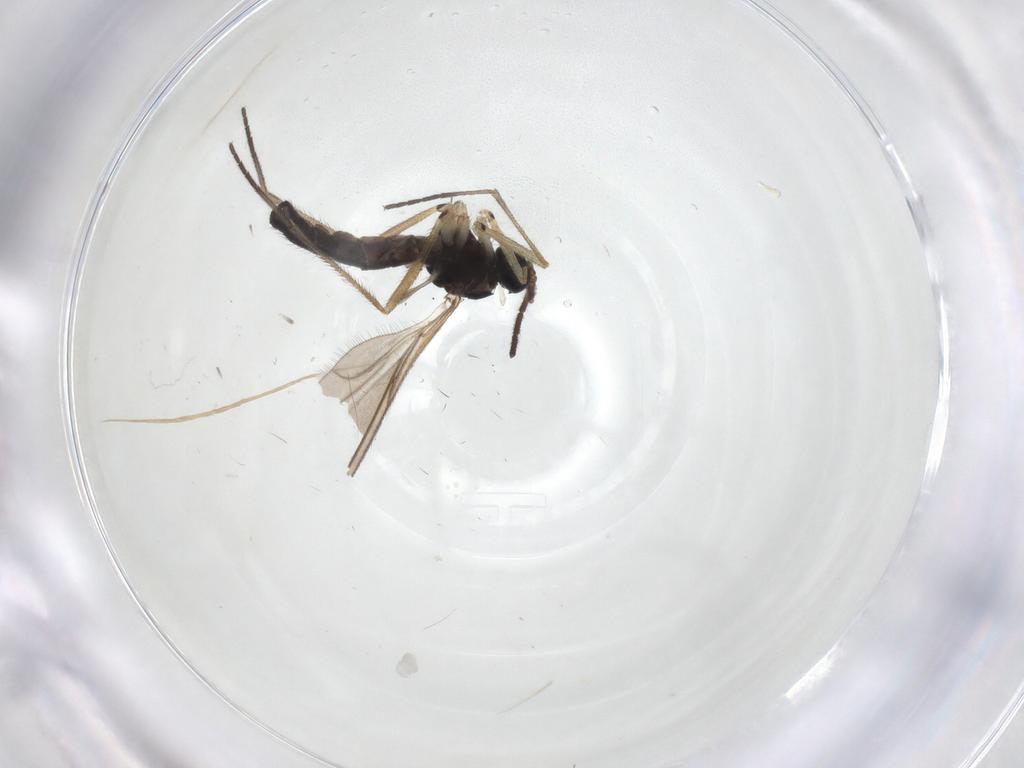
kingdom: Animalia
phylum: Arthropoda
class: Insecta
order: Diptera
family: Sciaridae
